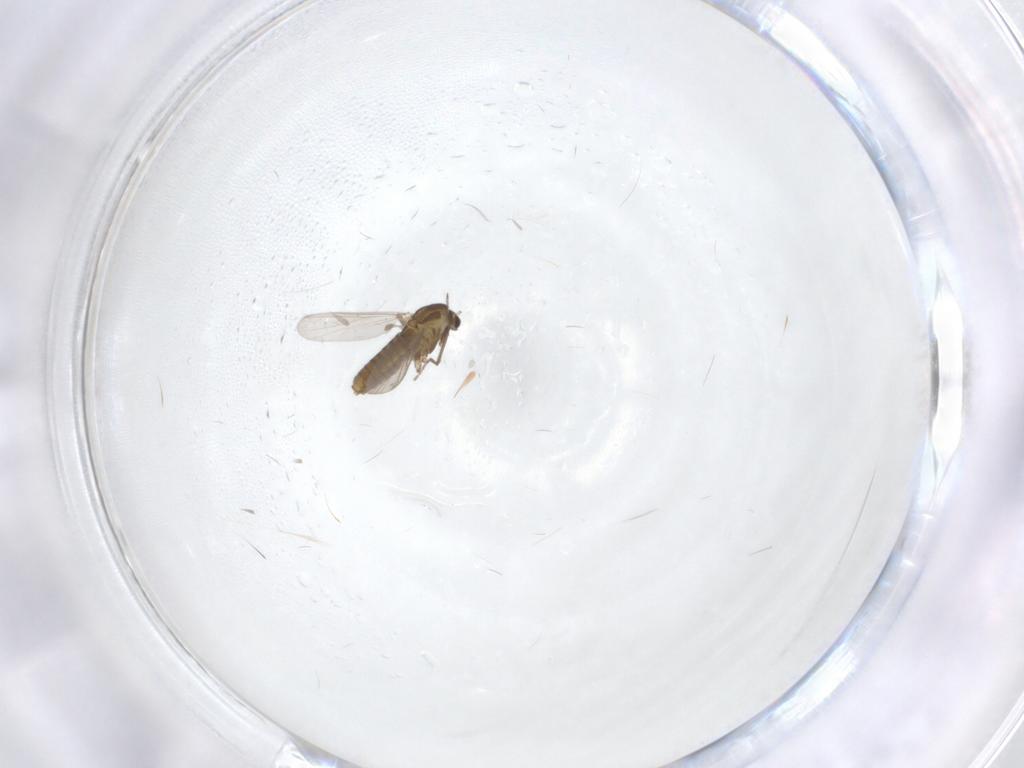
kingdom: Animalia
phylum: Arthropoda
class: Insecta
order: Diptera
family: Chironomidae
